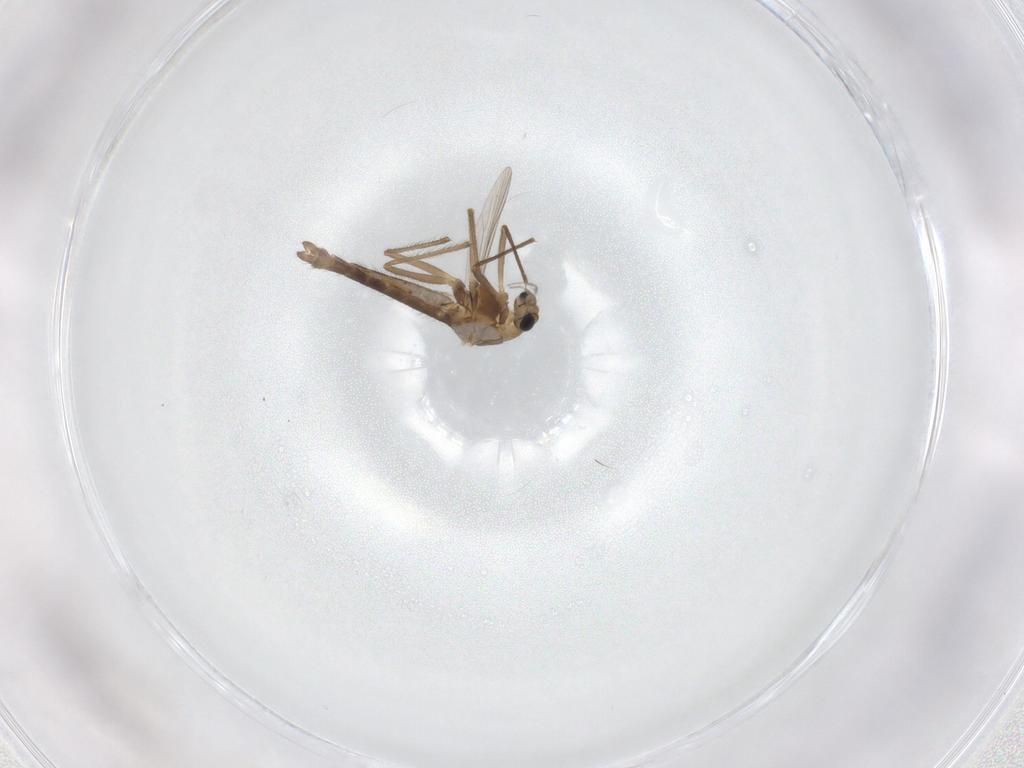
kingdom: Animalia
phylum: Arthropoda
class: Insecta
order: Diptera
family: Chironomidae
